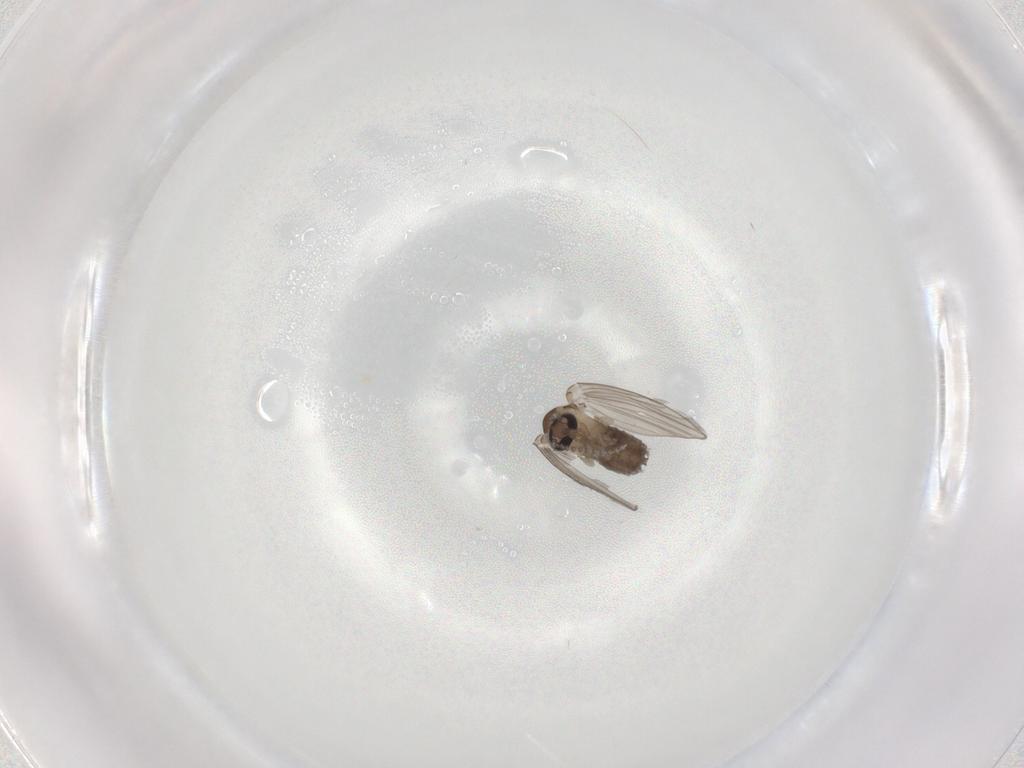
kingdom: Animalia
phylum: Arthropoda
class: Insecta
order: Diptera
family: Psychodidae
